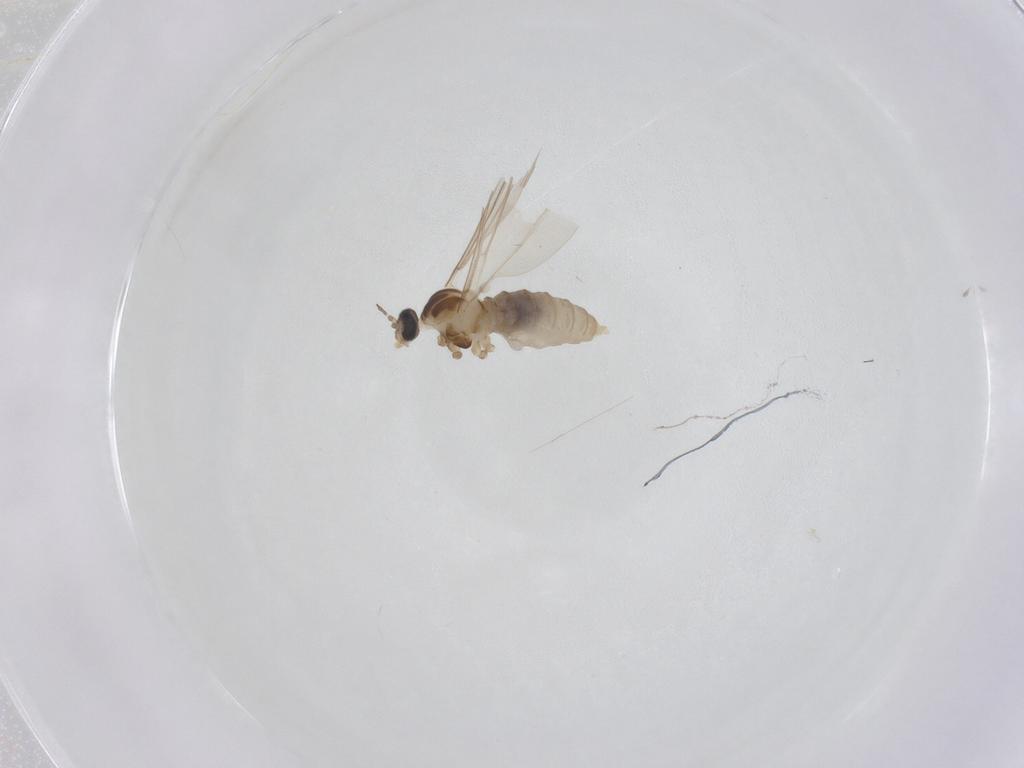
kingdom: Animalia
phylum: Arthropoda
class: Insecta
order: Diptera
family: Cecidomyiidae
